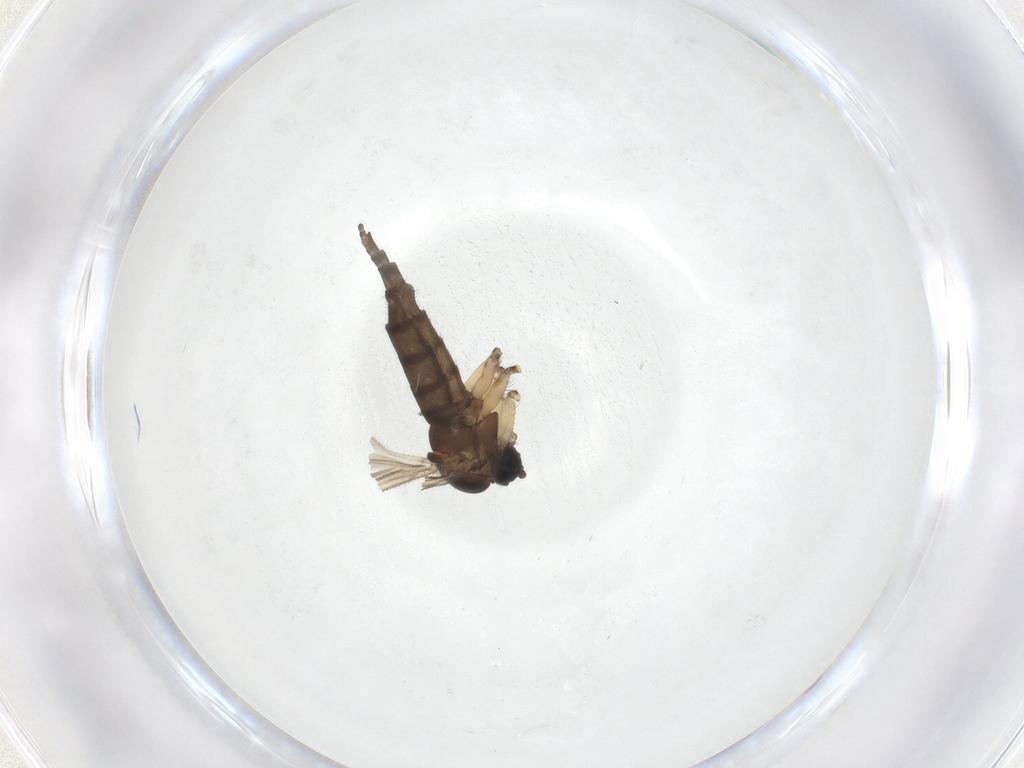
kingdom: Animalia
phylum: Arthropoda
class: Insecta
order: Diptera
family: Sciaridae
